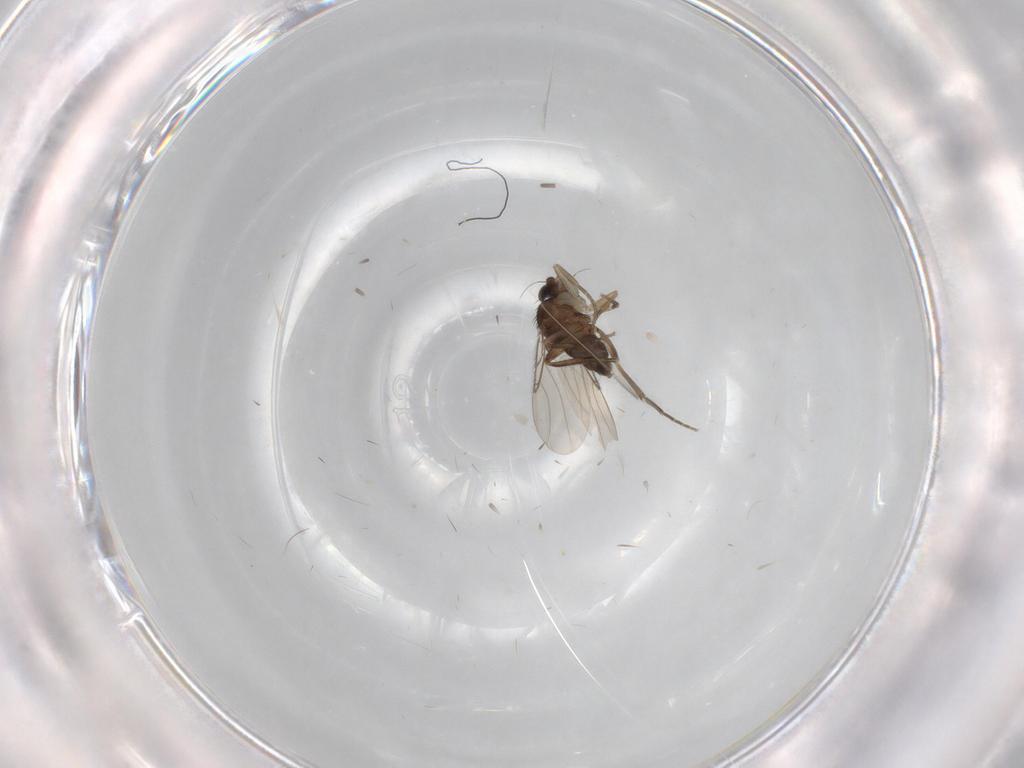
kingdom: Animalia
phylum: Arthropoda
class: Insecta
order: Diptera
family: Phoridae
